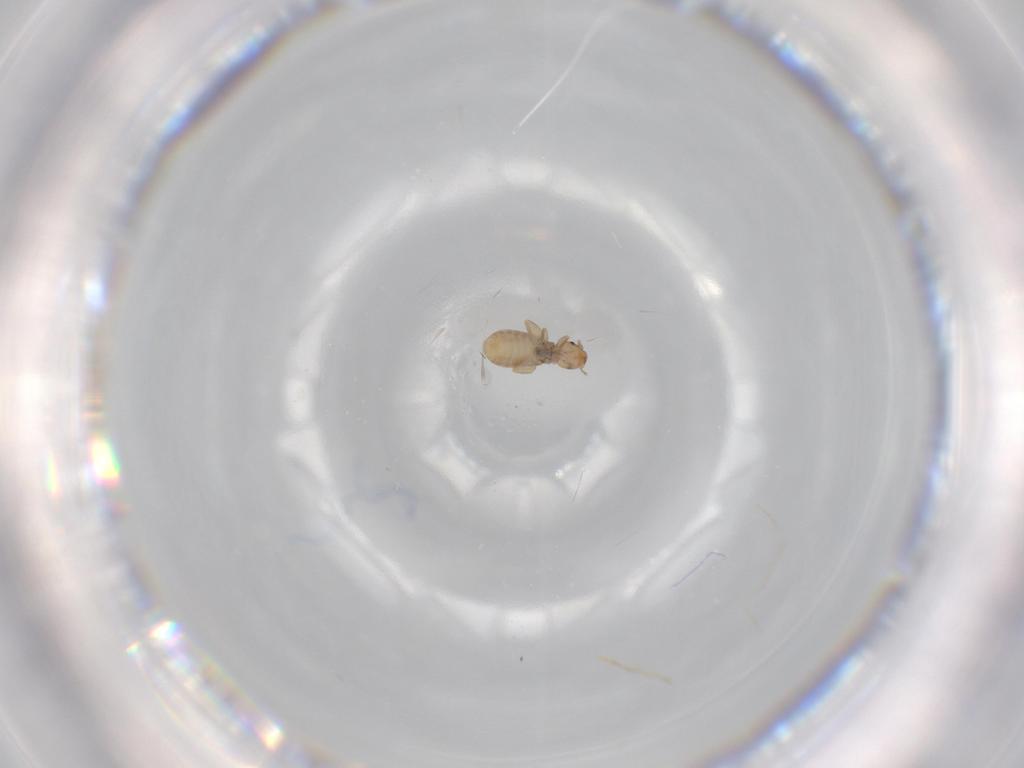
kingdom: Animalia
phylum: Arthropoda
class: Insecta
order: Psocodea
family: Liposcelididae
